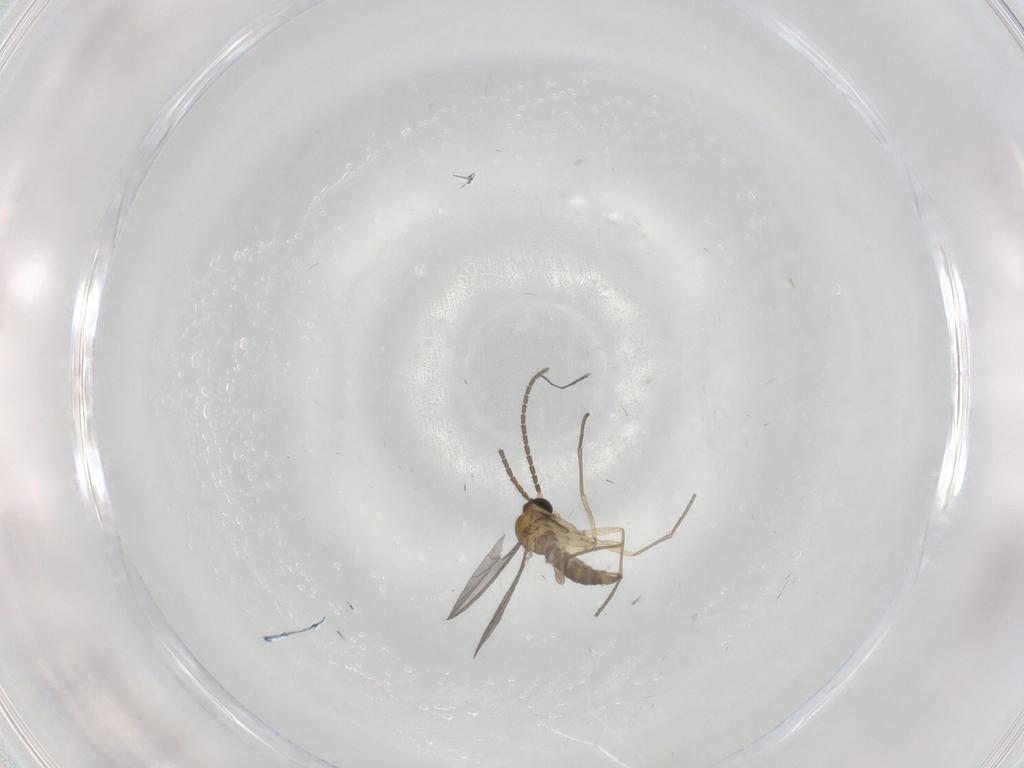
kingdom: Animalia
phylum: Arthropoda
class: Insecta
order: Diptera
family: Sciaridae
